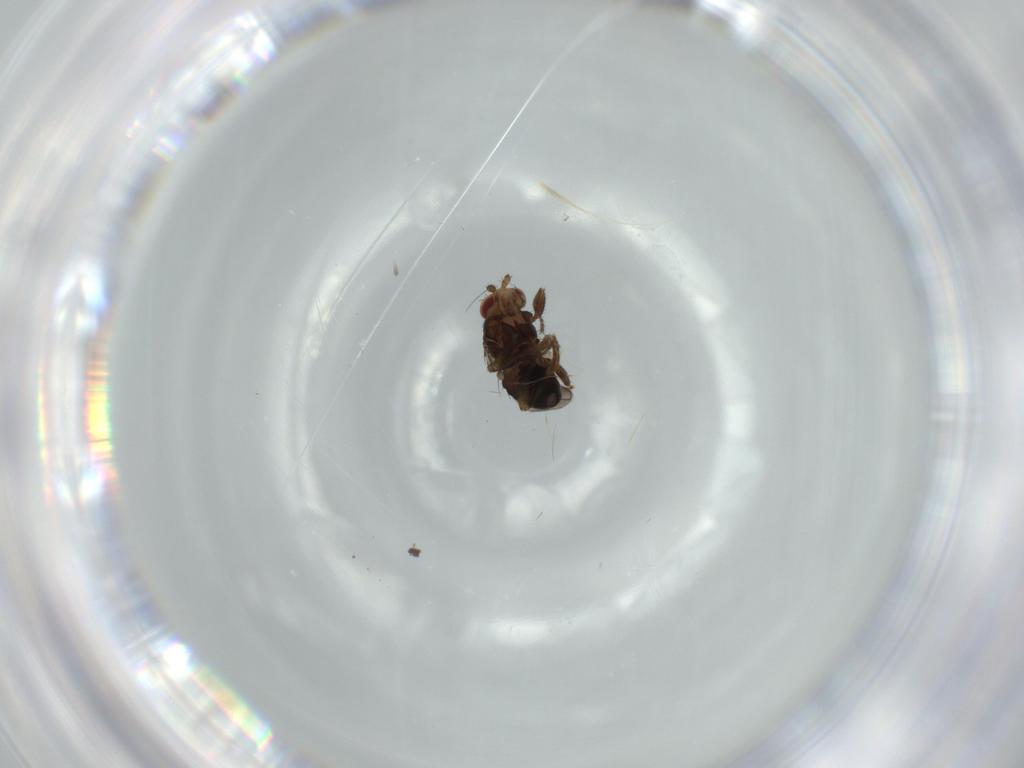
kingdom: Animalia
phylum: Arthropoda
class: Insecta
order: Diptera
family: Sphaeroceridae
